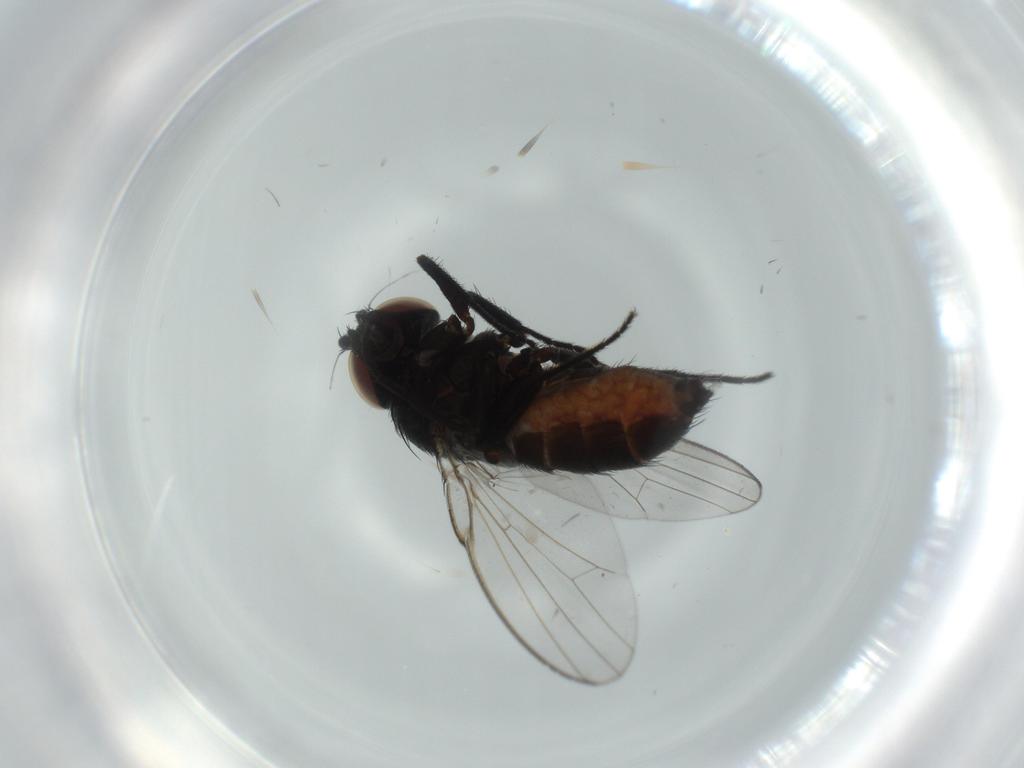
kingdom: Animalia
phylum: Arthropoda
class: Insecta
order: Diptera
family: Milichiidae
